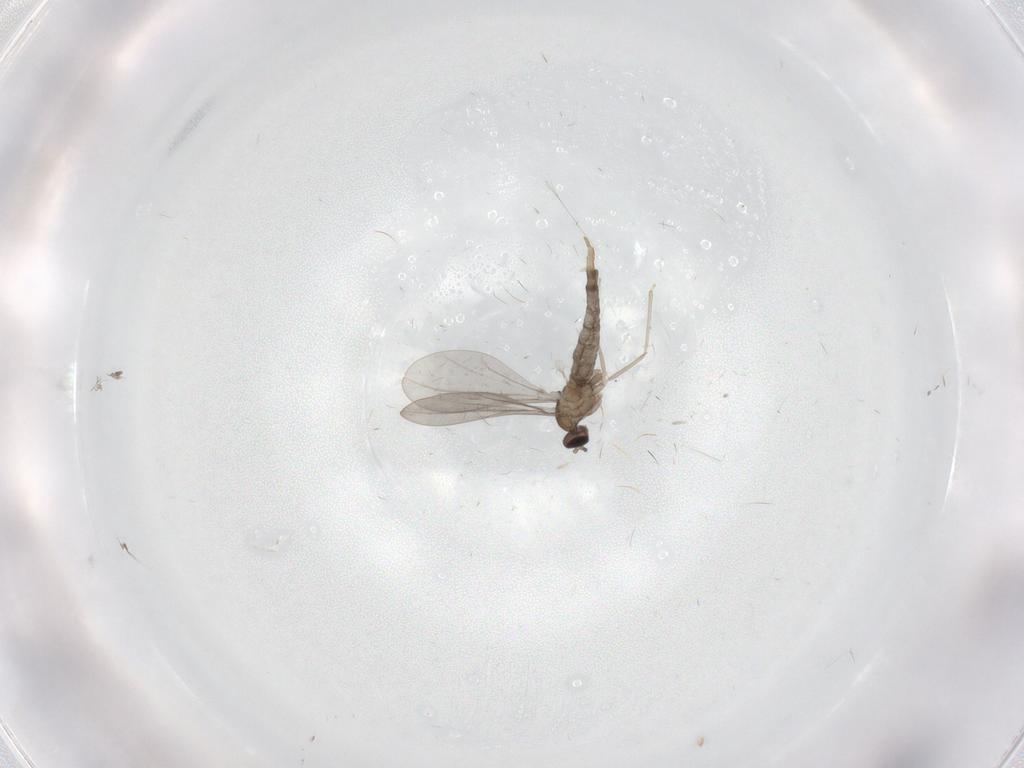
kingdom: Animalia
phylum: Arthropoda
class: Insecta
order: Diptera
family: Cecidomyiidae
